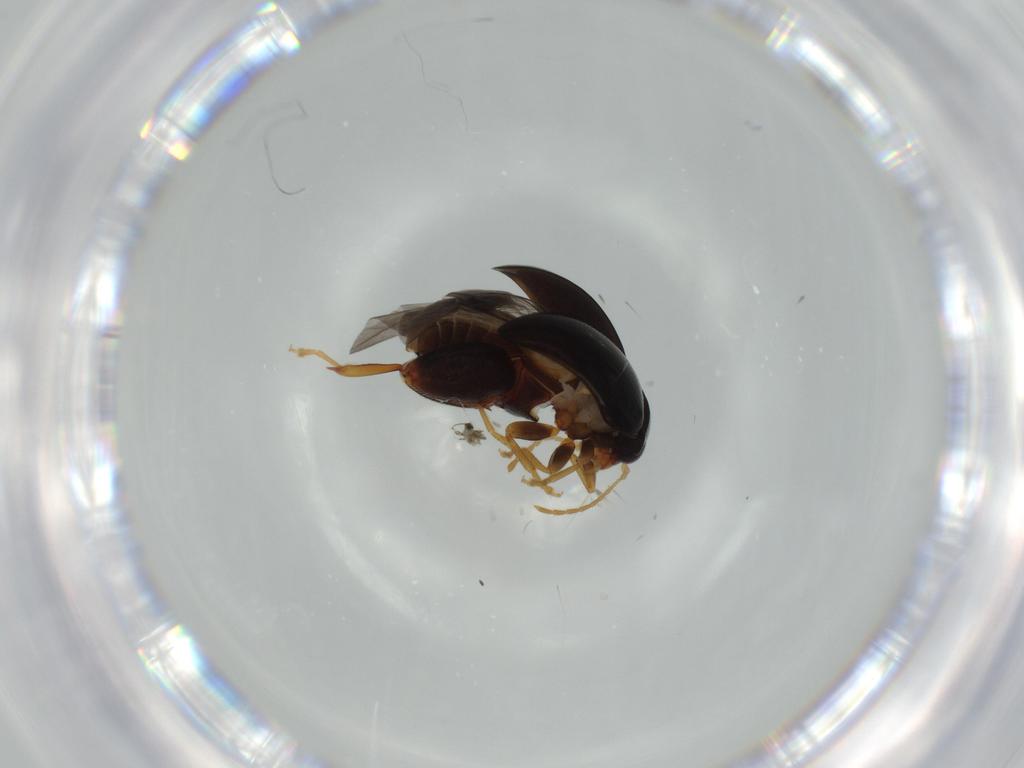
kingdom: Animalia
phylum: Arthropoda
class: Insecta
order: Coleoptera
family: Chrysomelidae
